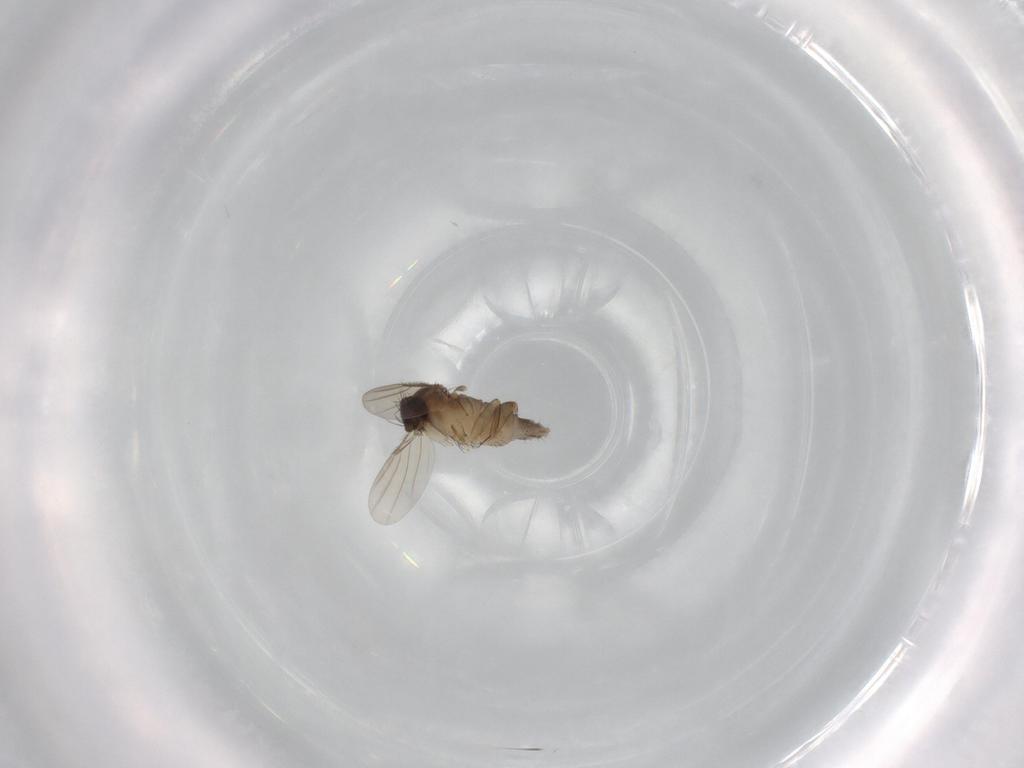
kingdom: Animalia
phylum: Arthropoda
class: Insecta
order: Diptera
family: Phoridae
